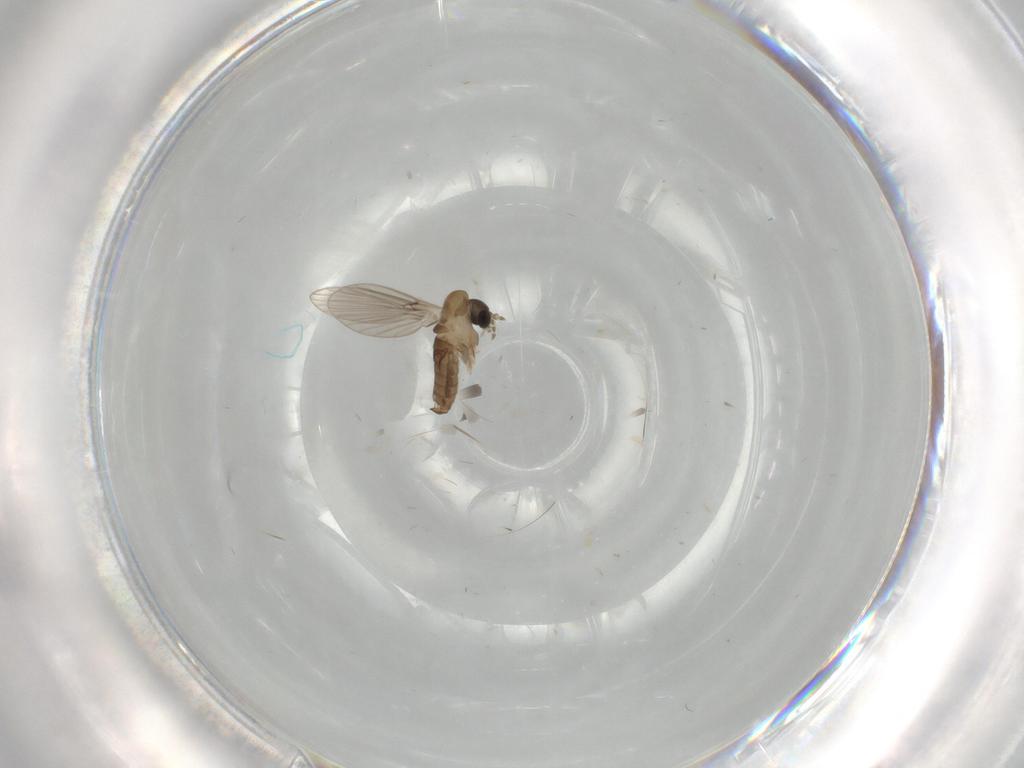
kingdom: Animalia
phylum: Arthropoda
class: Insecta
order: Diptera
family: Psychodidae
